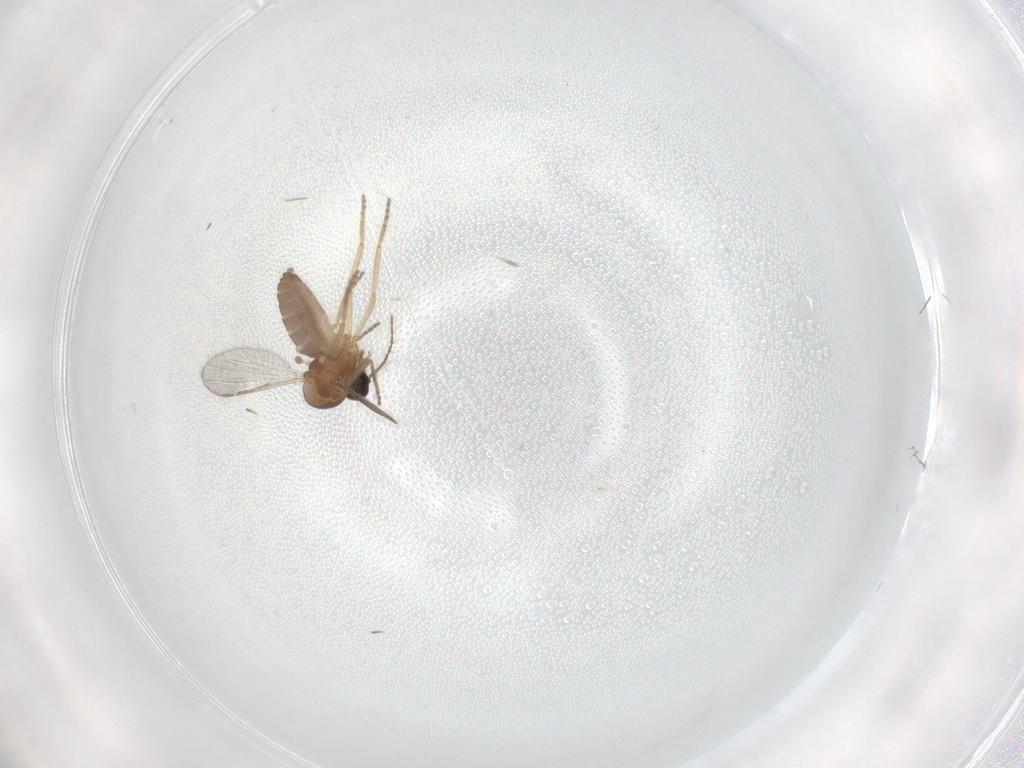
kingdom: Animalia
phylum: Arthropoda
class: Insecta
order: Diptera
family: Ceratopogonidae
